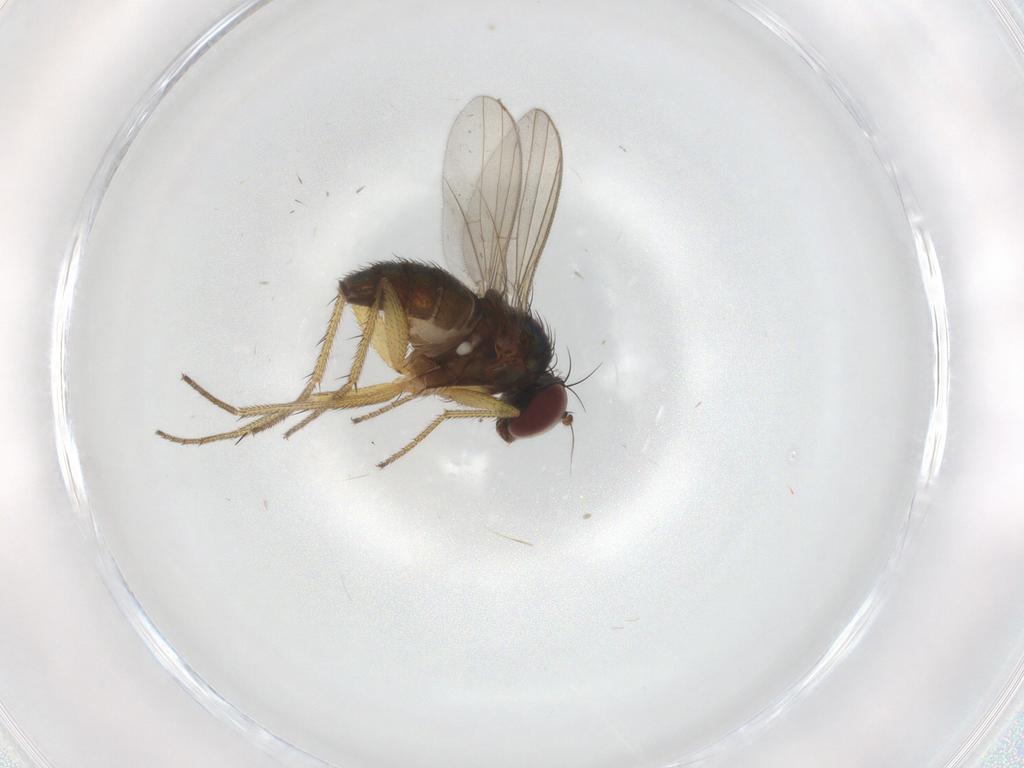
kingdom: Animalia
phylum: Arthropoda
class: Insecta
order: Diptera
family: Richardiidae
